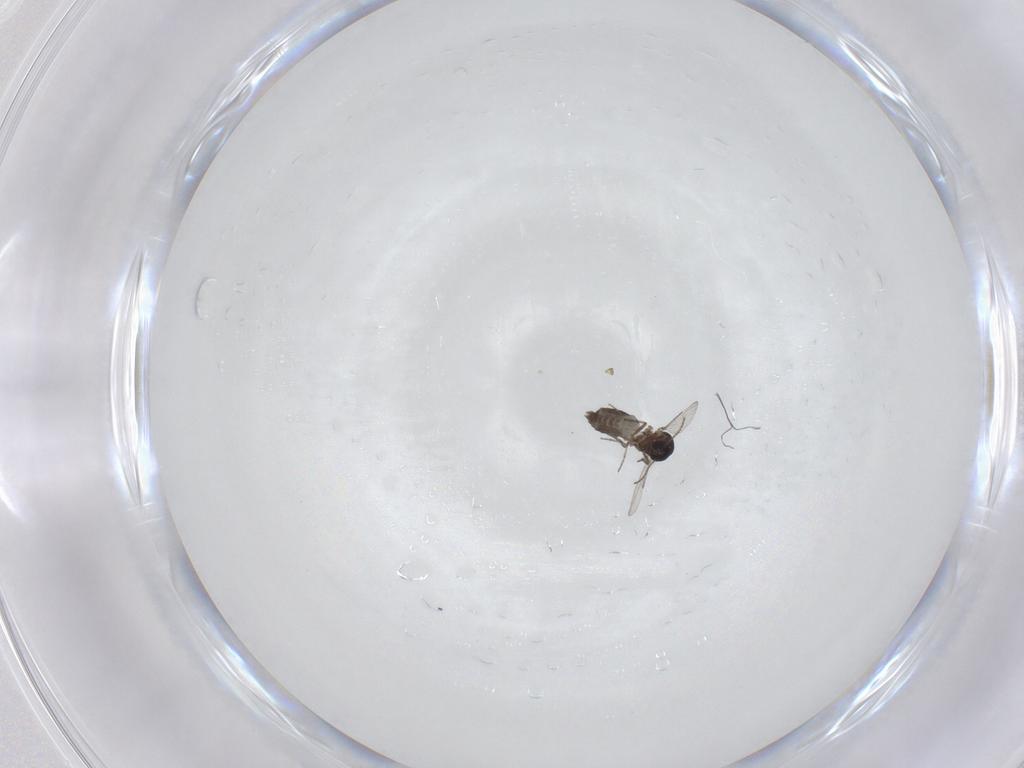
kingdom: Animalia
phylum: Arthropoda
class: Insecta
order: Diptera
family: Ceratopogonidae
